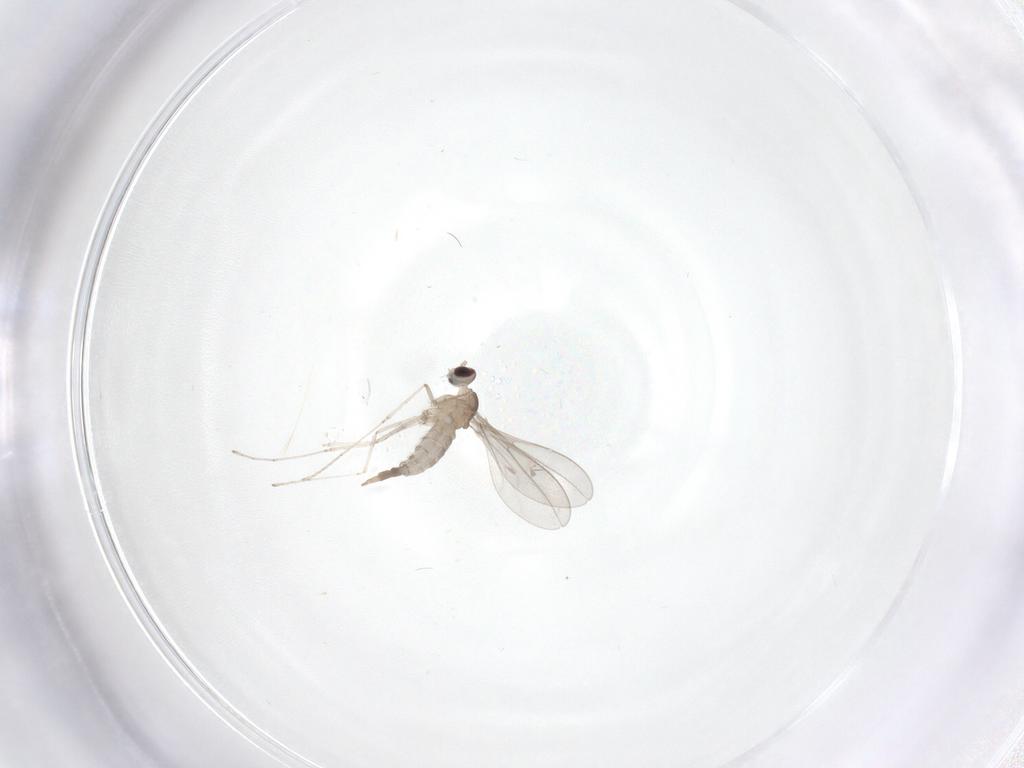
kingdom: Animalia
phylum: Arthropoda
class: Insecta
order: Diptera
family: Cecidomyiidae
